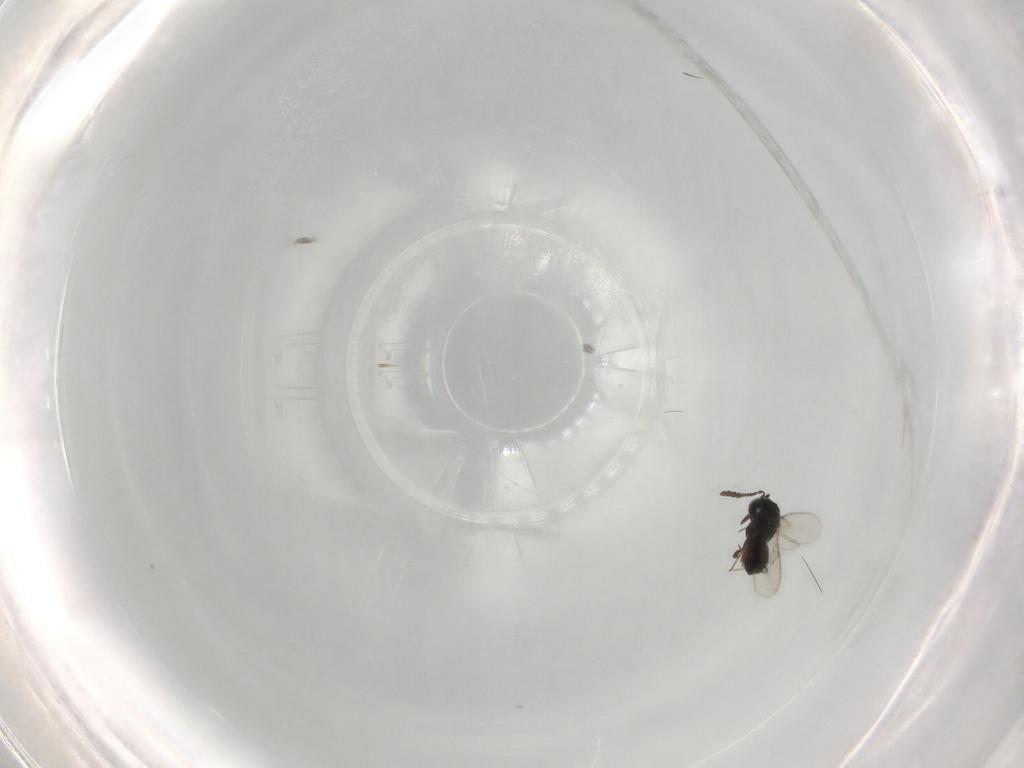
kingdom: Animalia
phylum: Arthropoda
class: Insecta
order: Hymenoptera
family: Scelionidae
